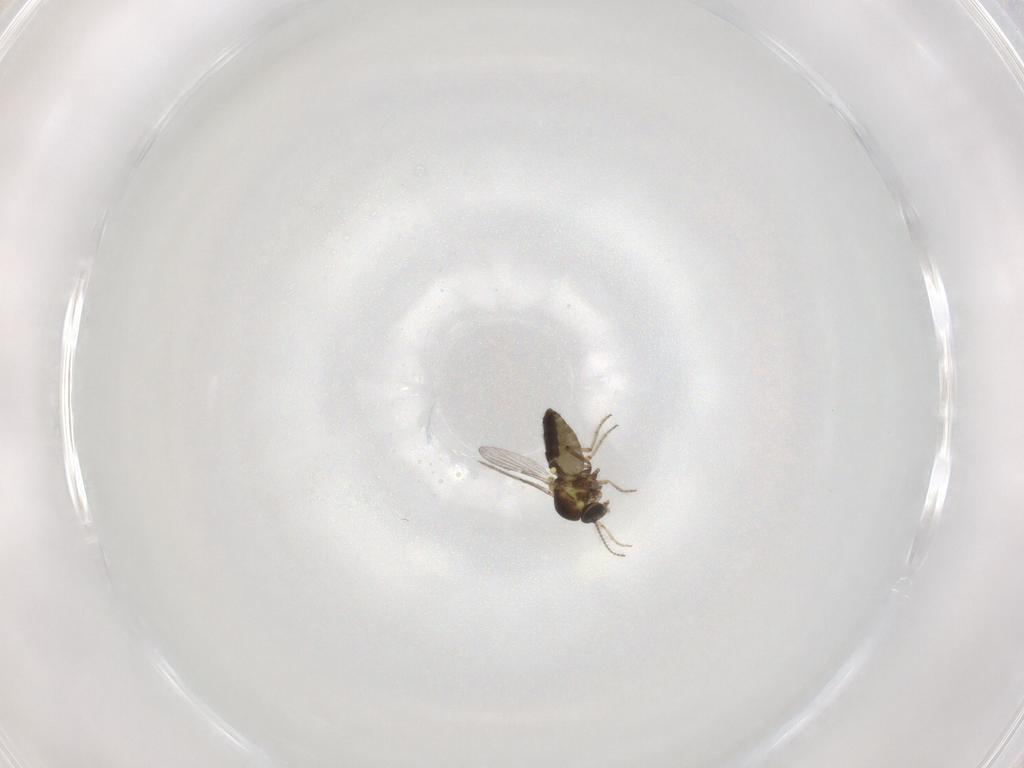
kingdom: Animalia
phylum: Arthropoda
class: Insecta
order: Diptera
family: Ceratopogonidae
